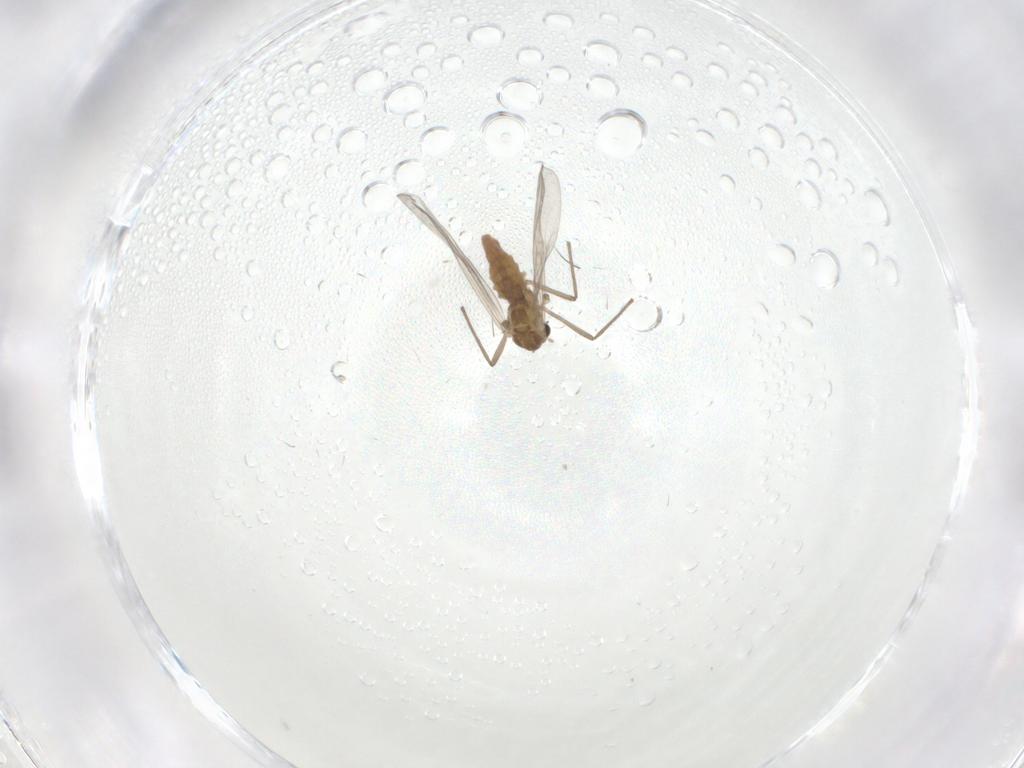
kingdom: Animalia
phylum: Arthropoda
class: Insecta
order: Diptera
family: Chironomidae
